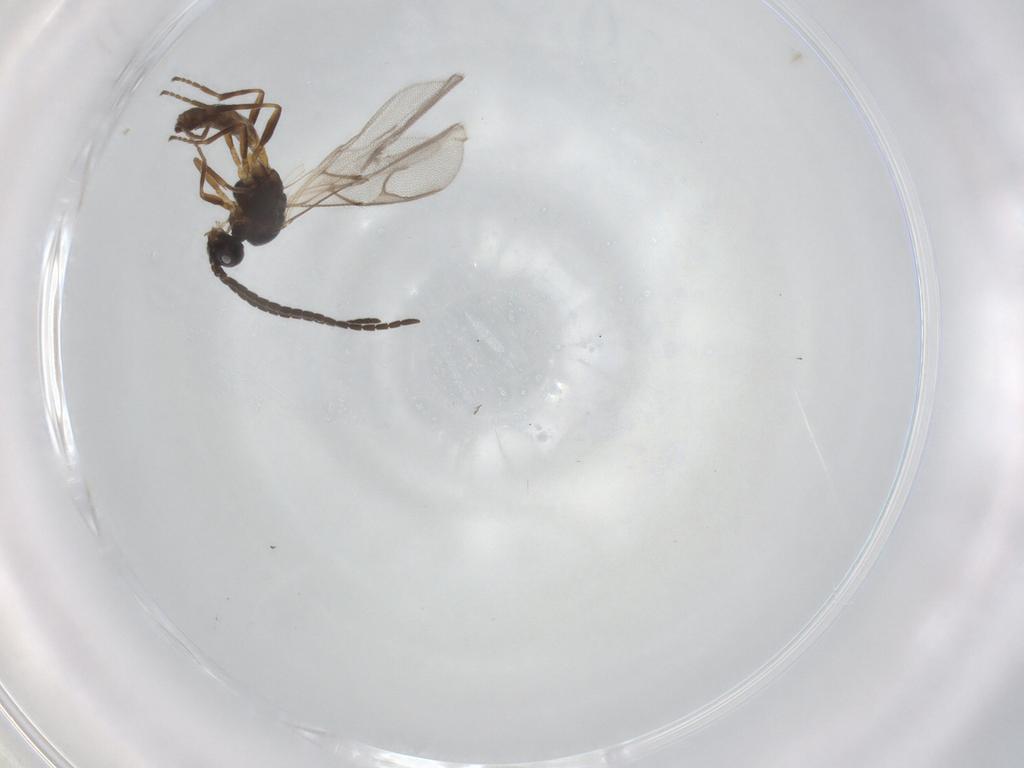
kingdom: Animalia
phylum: Arthropoda
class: Insecta
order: Hymenoptera
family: Braconidae
